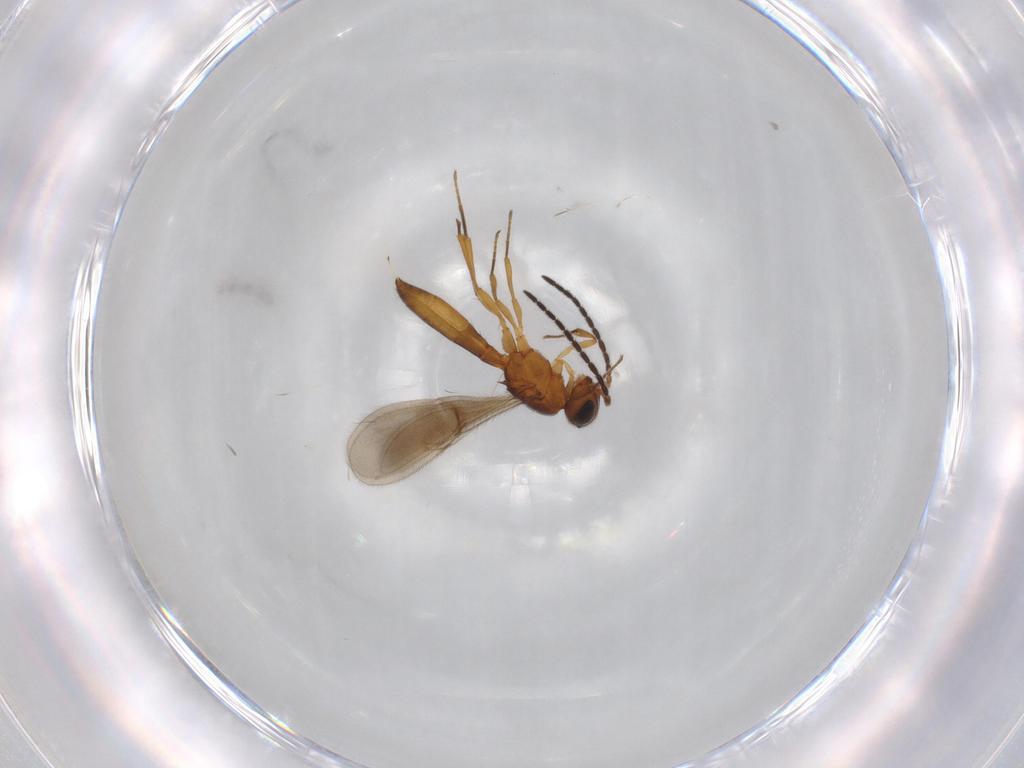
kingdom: Animalia
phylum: Arthropoda
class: Insecta
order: Hymenoptera
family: Scelionidae
